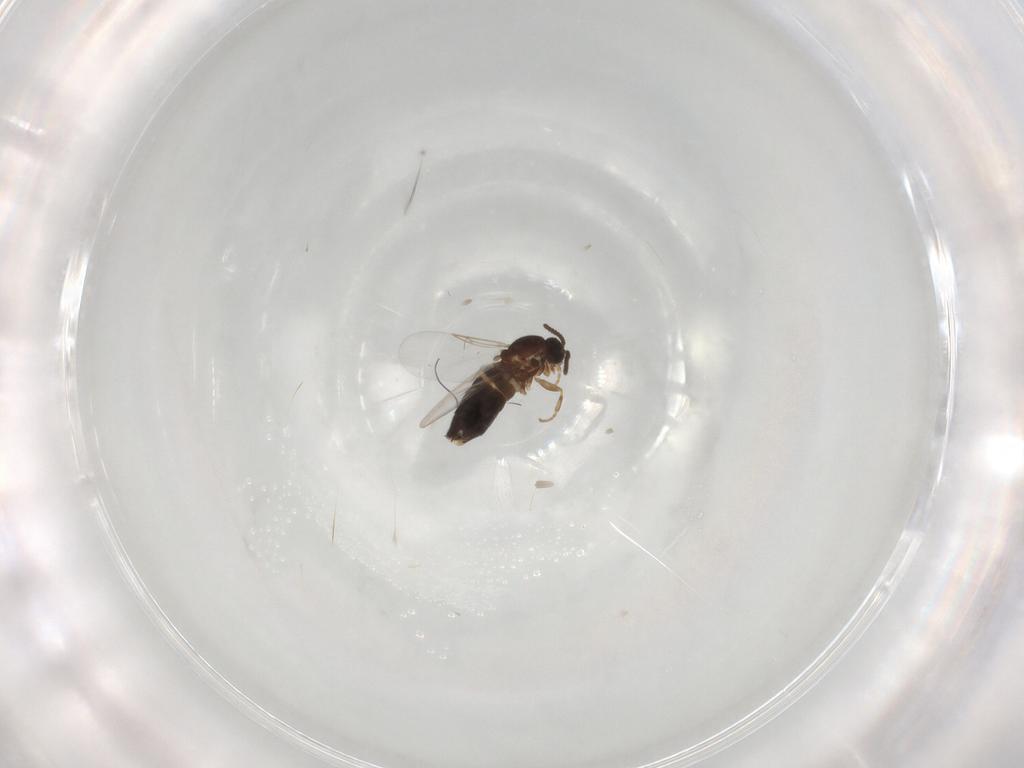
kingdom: Animalia
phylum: Arthropoda
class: Insecta
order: Diptera
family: Scatopsidae
